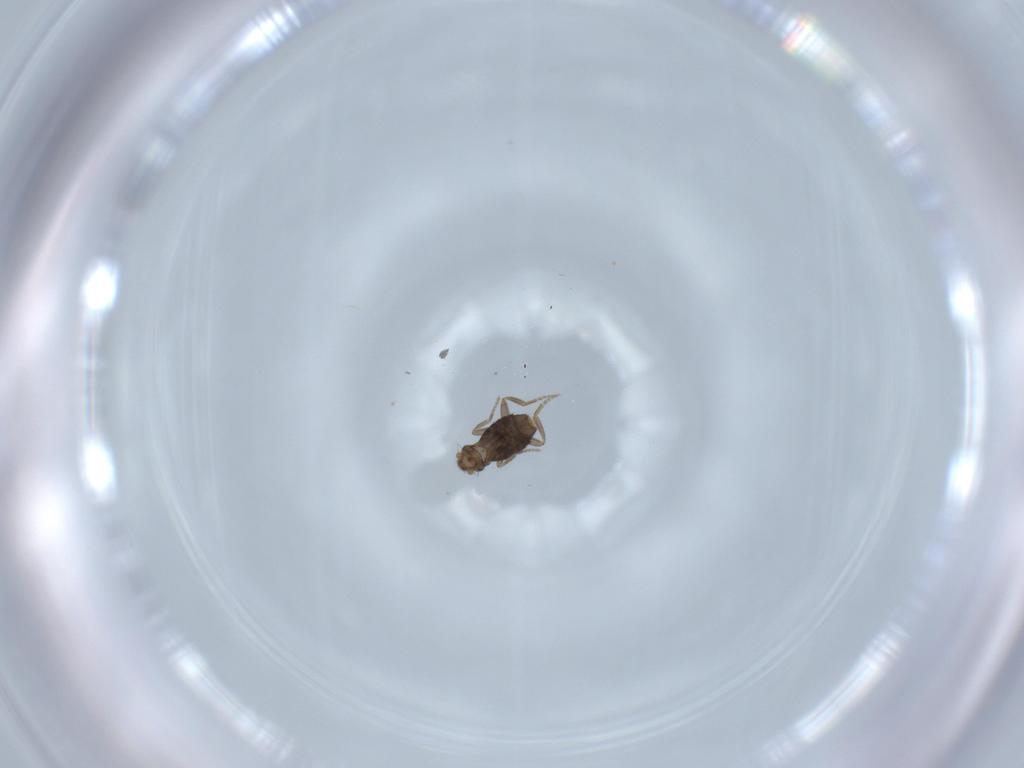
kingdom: Animalia
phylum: Arthropoda
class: Insecta
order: Diptera
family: Phoridae
